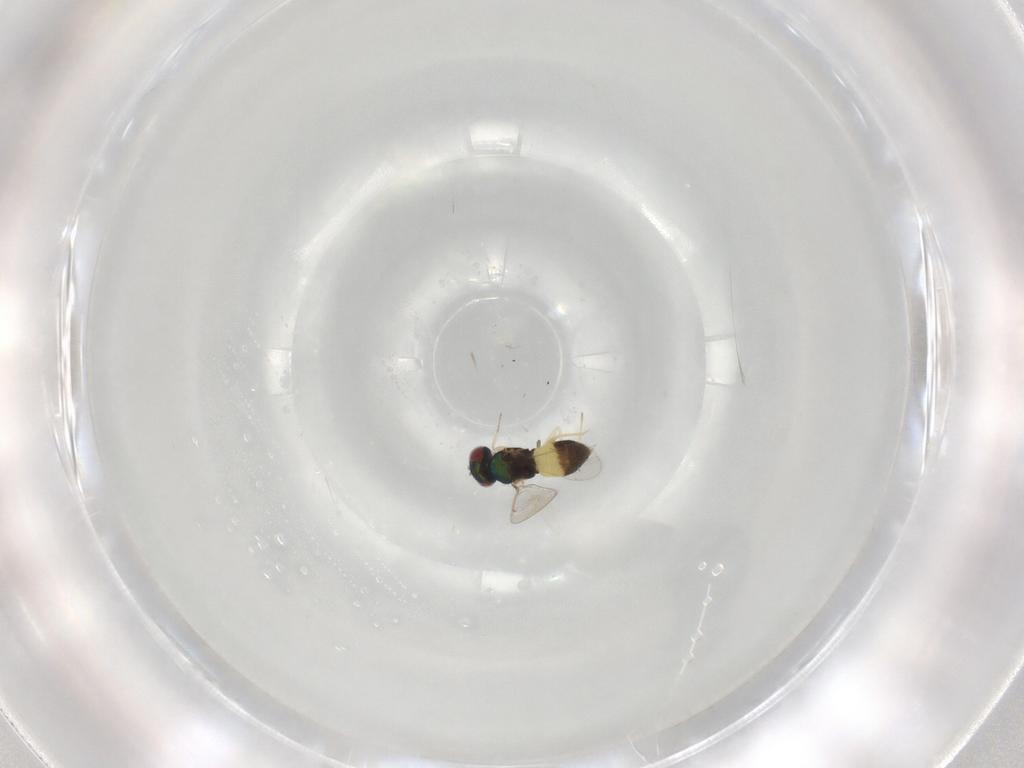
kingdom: Animalia
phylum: Arthropoda
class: Insecta
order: Hymenoptera
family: Eulophidae
